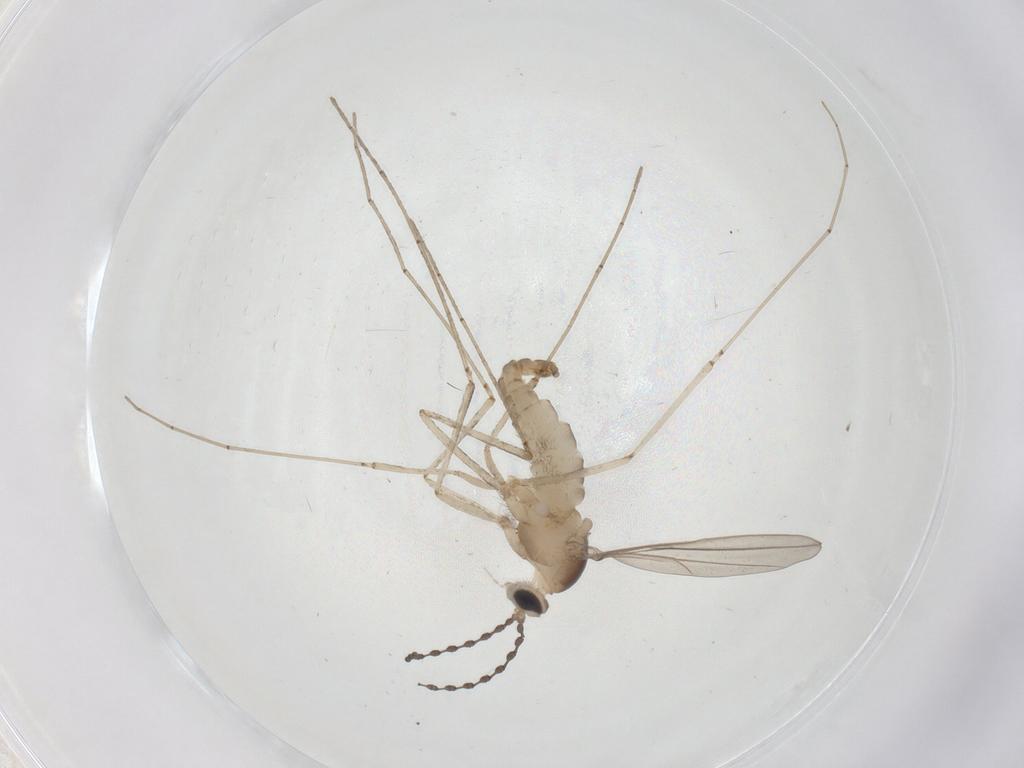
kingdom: Animalia
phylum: Arthropoda
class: Insecta
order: Diptera
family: Cecidomyiidae
